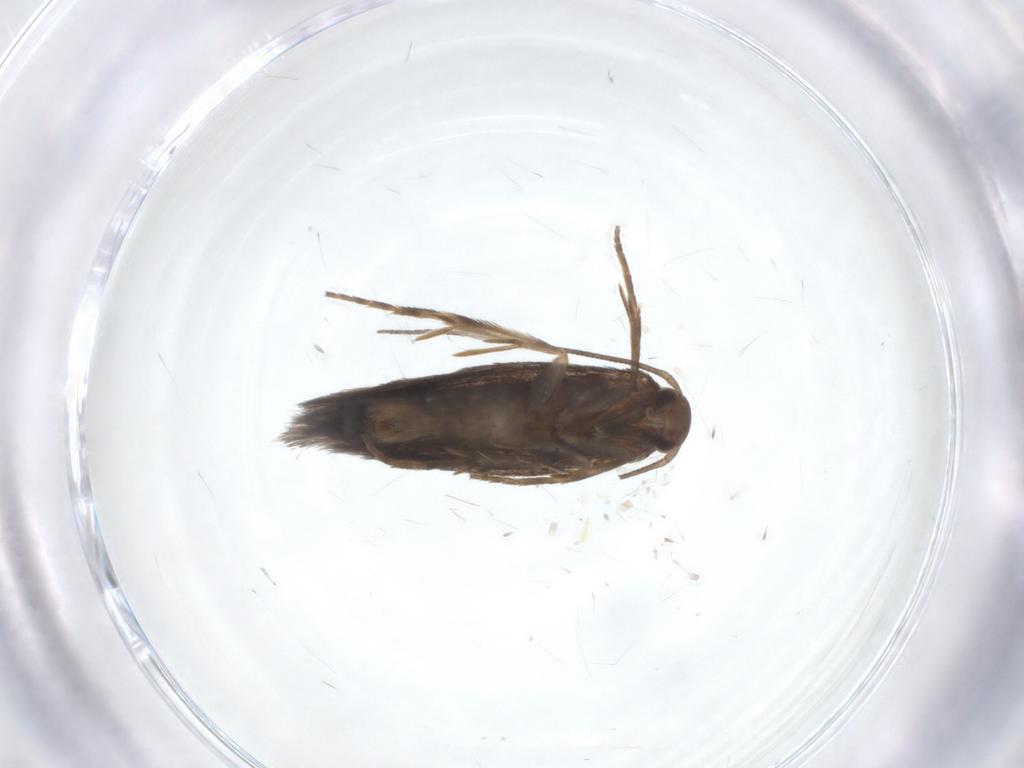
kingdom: Animalia
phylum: Arthropoda
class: Insecta
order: Lepidoptera
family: Elachistidae
